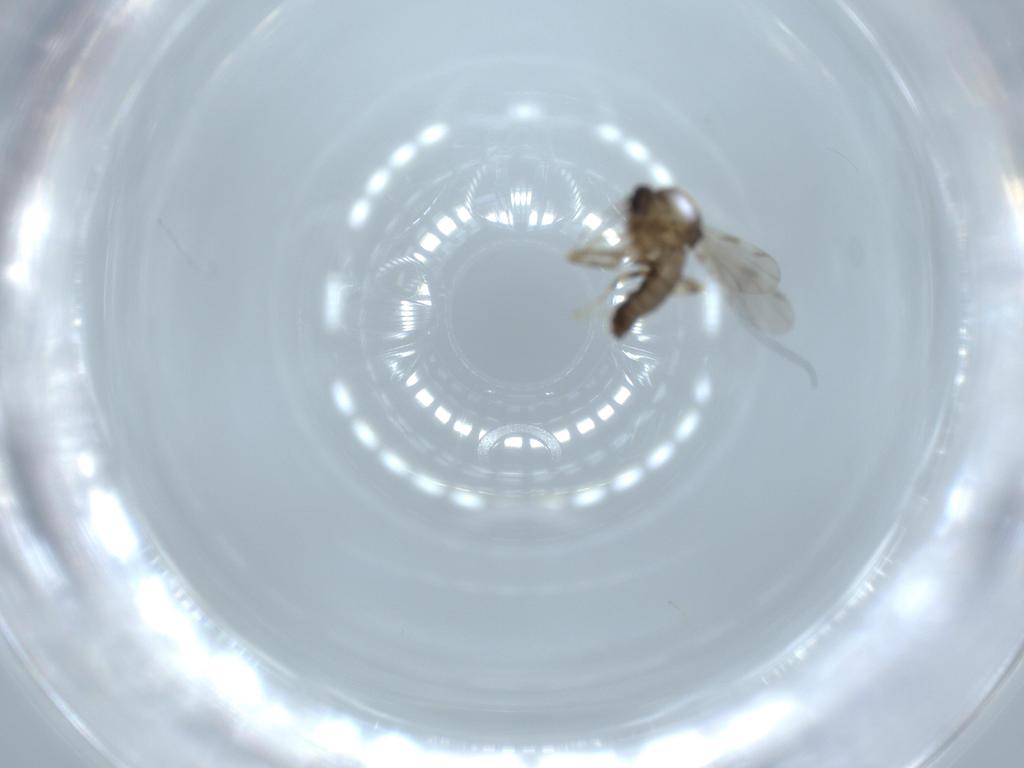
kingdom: Animalia
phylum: Arthropoda
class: Insecta
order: Diptera
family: Ceratopogonidae
